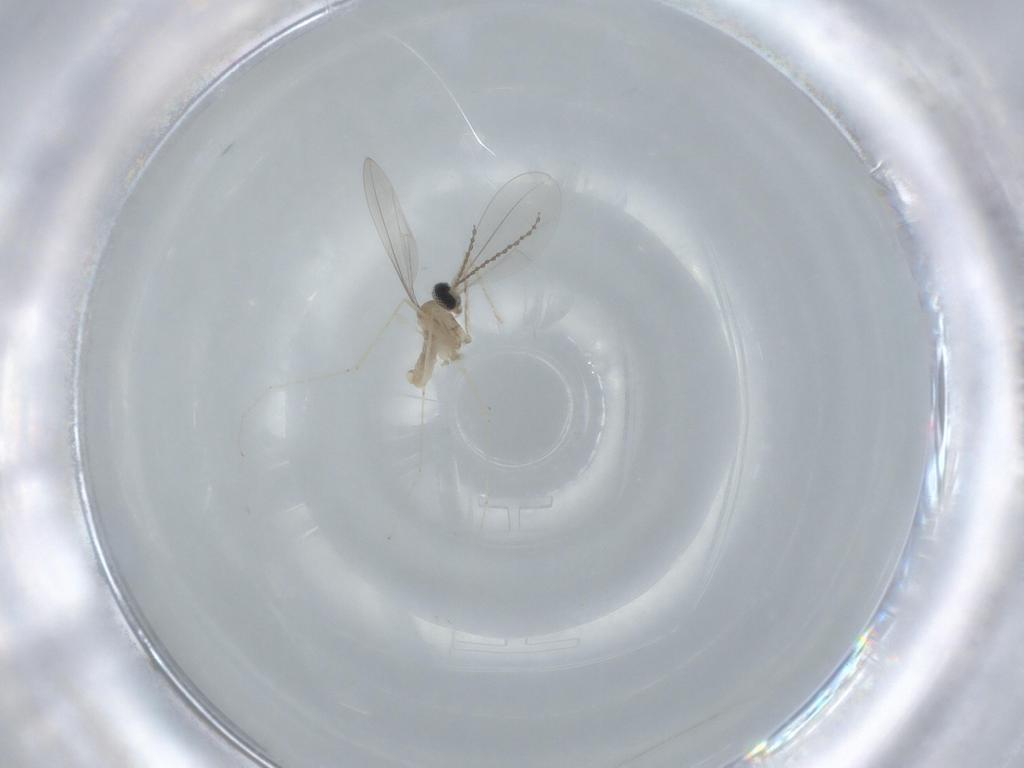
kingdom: Animalia
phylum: Arthropoda
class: Insecta
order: Diptera
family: Cecidomyiidae
